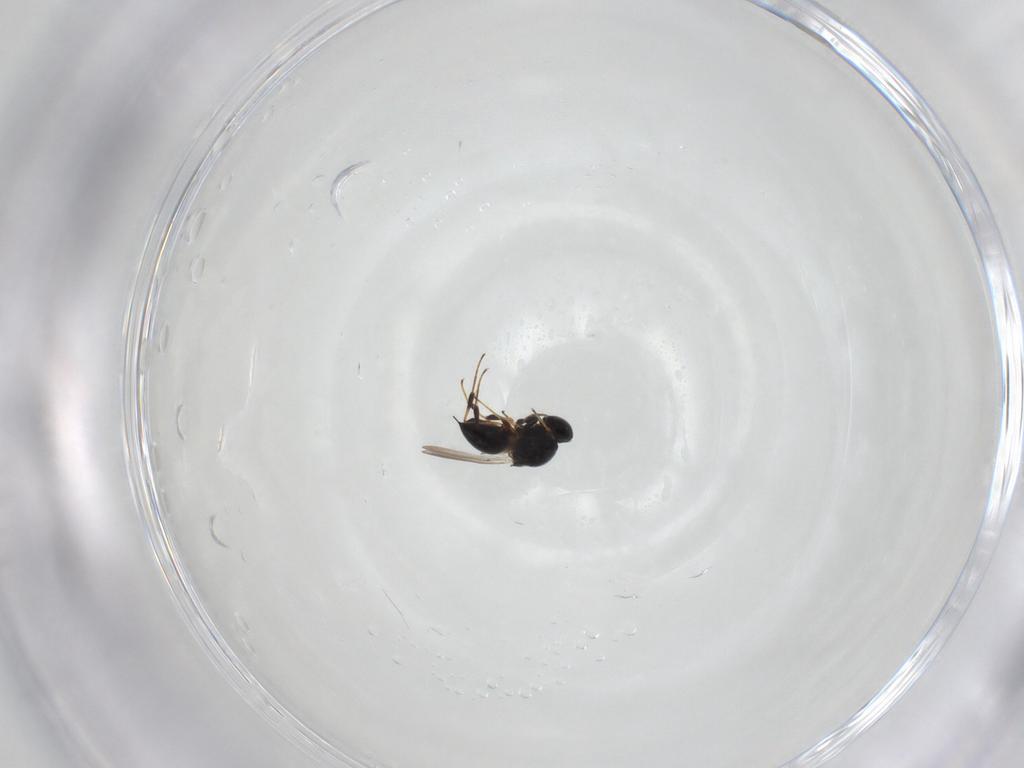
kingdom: Animalia
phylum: Arthropoda
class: Insecta
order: Hymenoptera
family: Platygastridae
